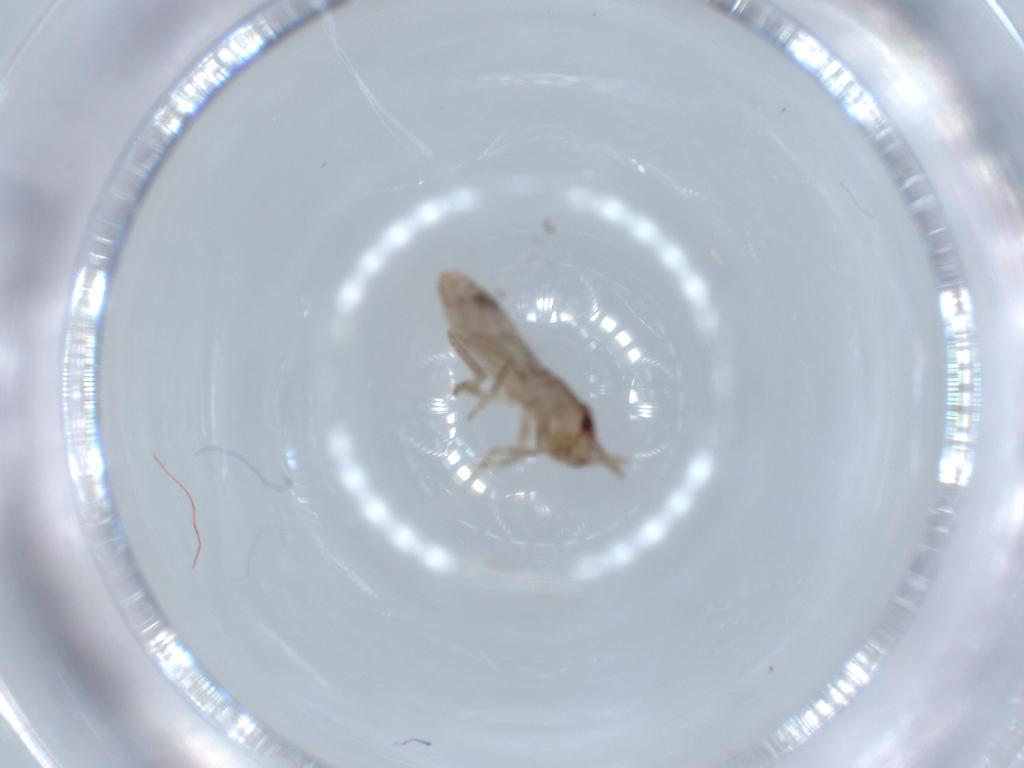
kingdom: Animalia
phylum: Arthropoda
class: Insecta
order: Orthoptera
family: Mogoplistidae
